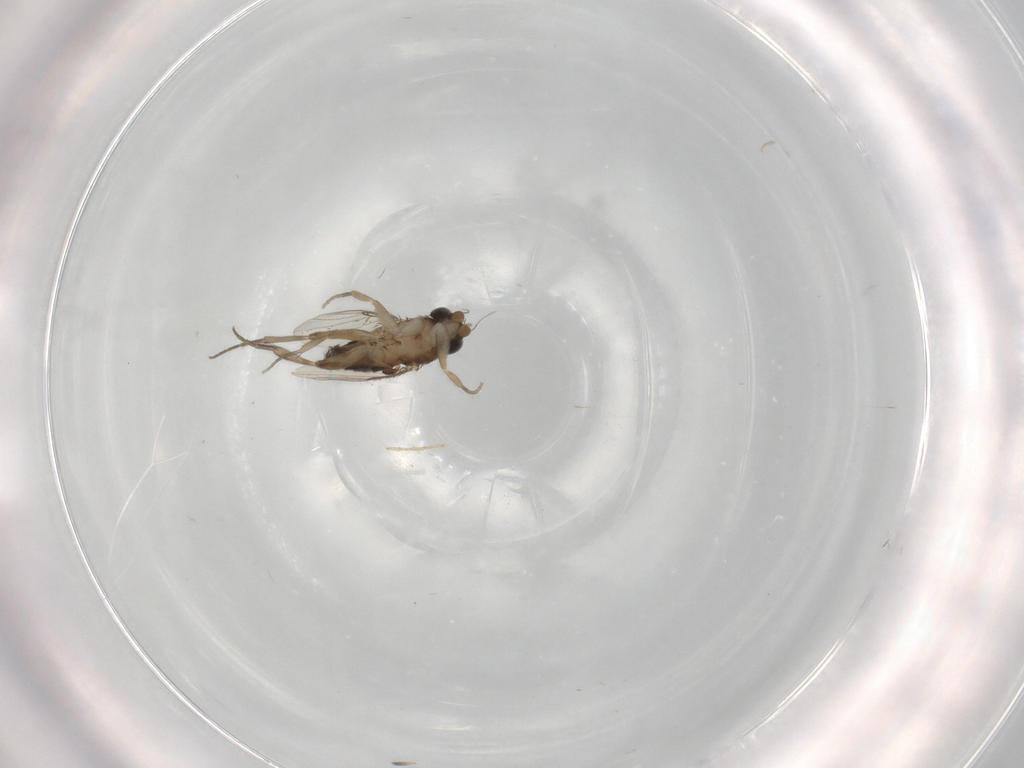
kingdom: Animalia
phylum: Arthropoda
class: Insecta
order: Diptera
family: Phoridae
